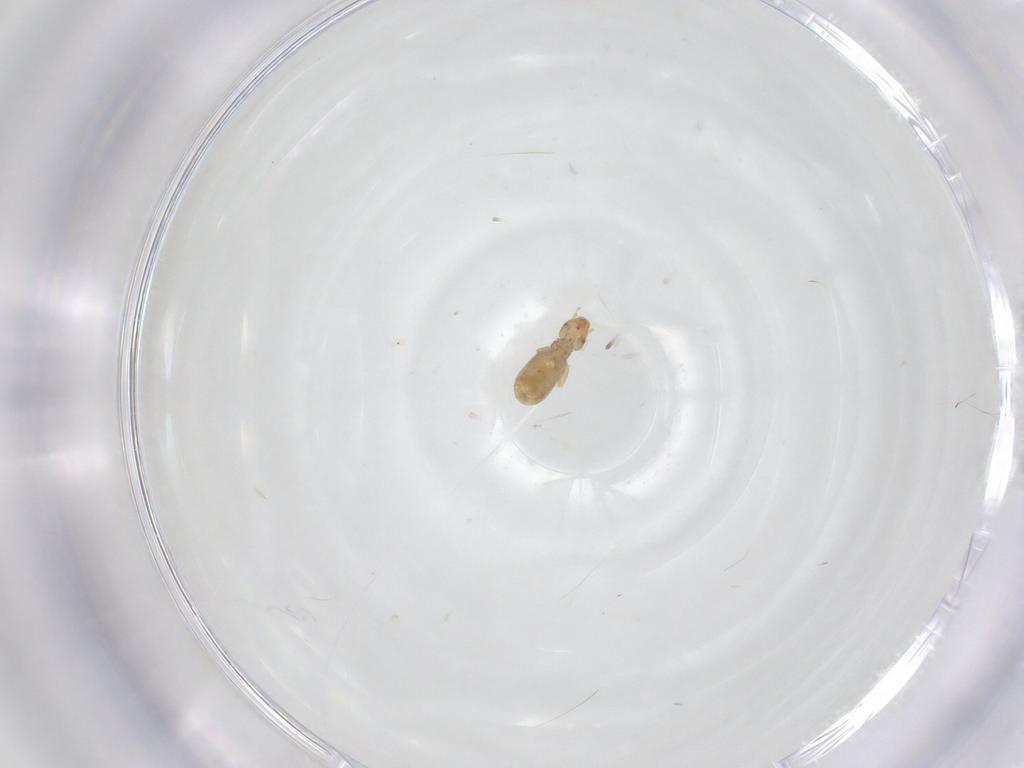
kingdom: Animalia
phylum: Arthropoda
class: Insecta
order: Psocodea
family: Liposcelididae
